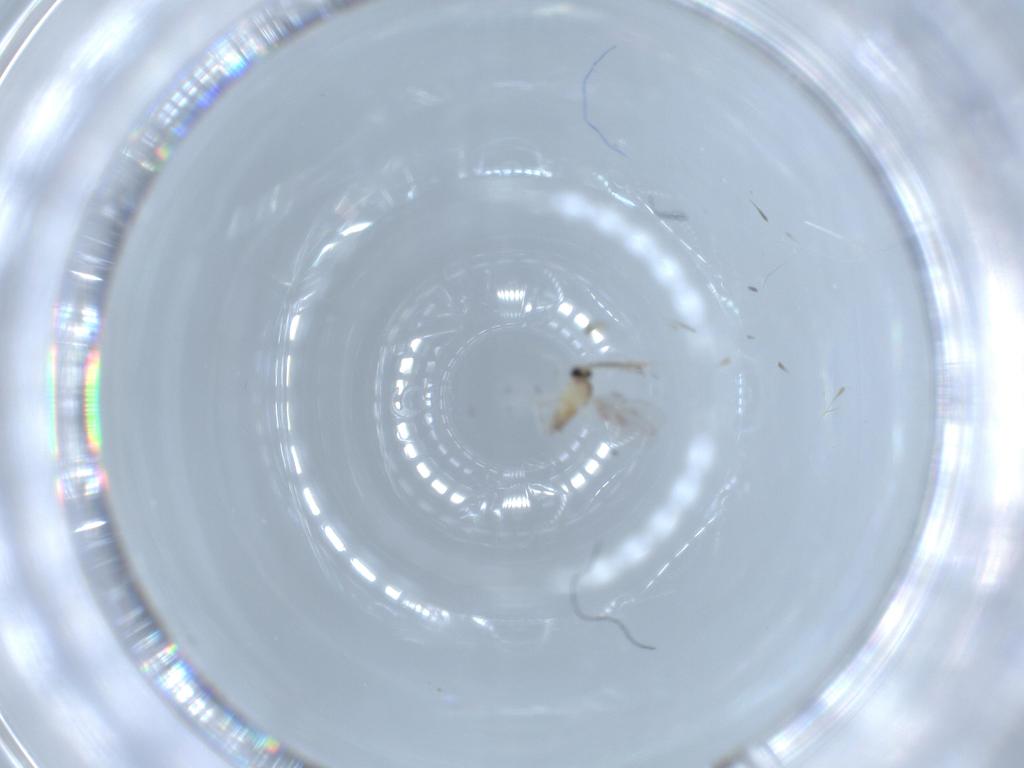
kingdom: Animalia
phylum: Arthropoda
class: Insecta
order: Diptera
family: Cecidomyiidae
